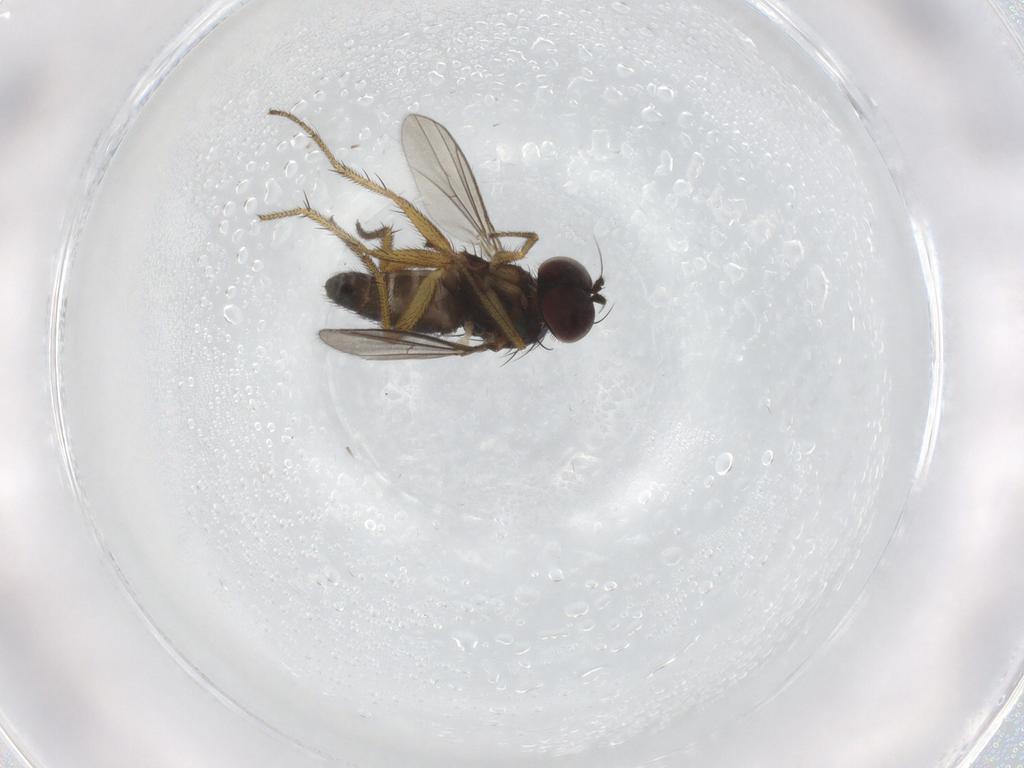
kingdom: Animalia
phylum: Arthropoda
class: Insecta
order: Diptera
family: Dolichopodidae
